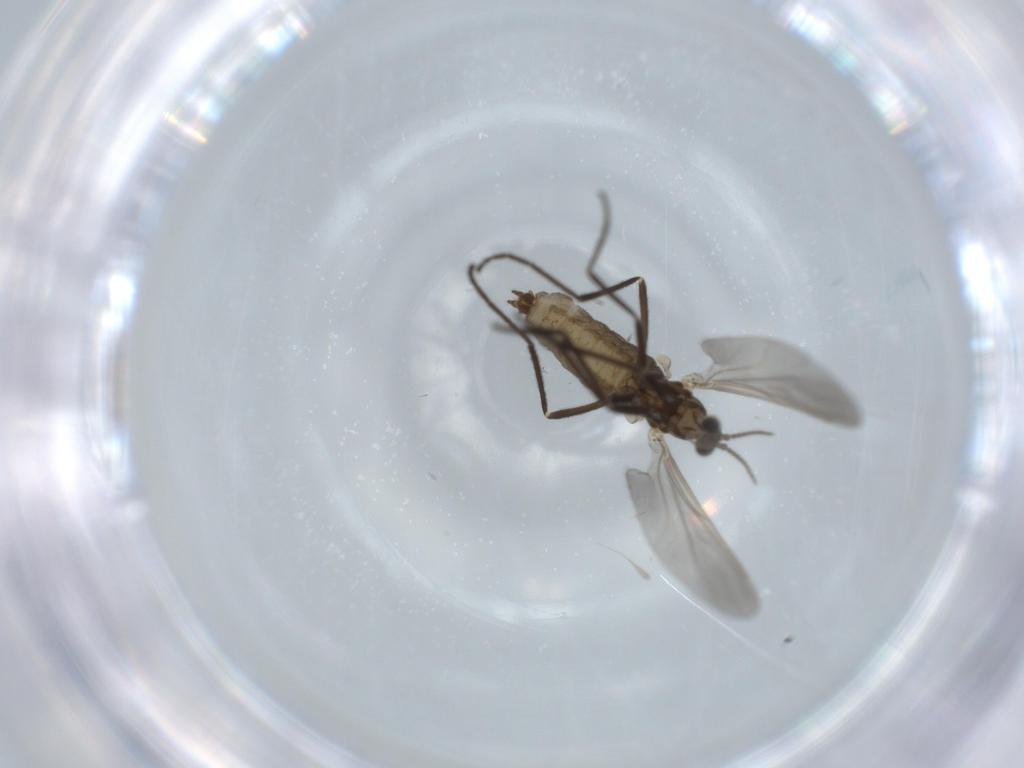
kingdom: Animalia
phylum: Arthropoda
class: Insecta
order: Diptera
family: Cecidomyiidae
